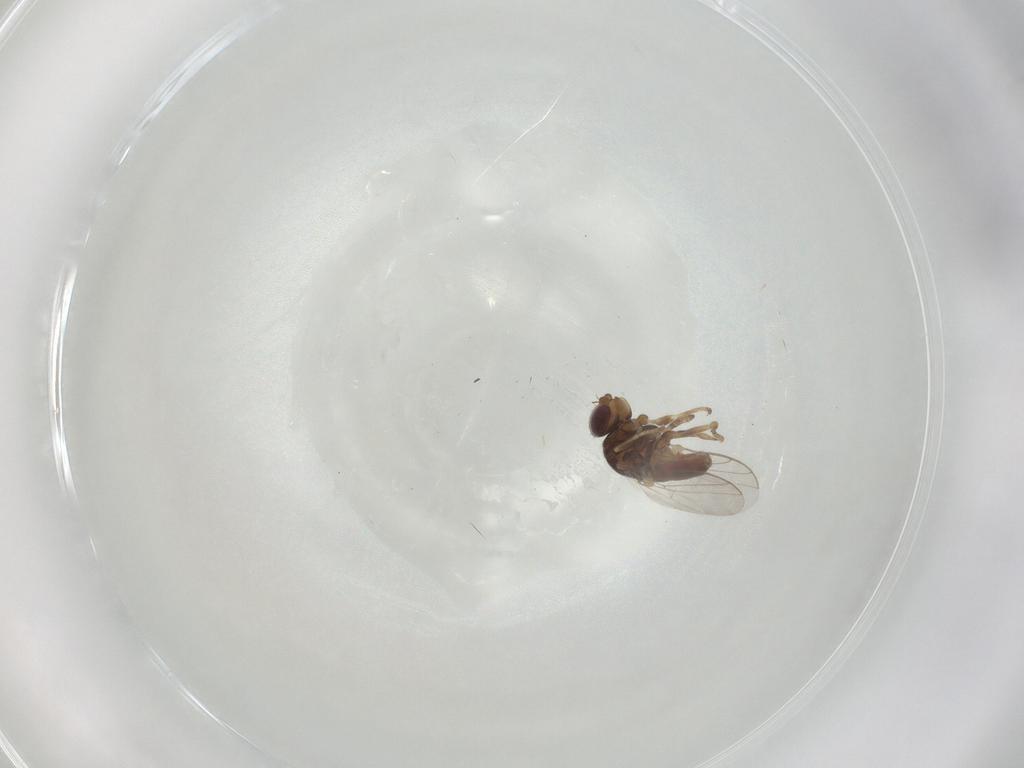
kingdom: Animalia
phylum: Arthropoda
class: Insecta
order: Diptera
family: Chloropidae
